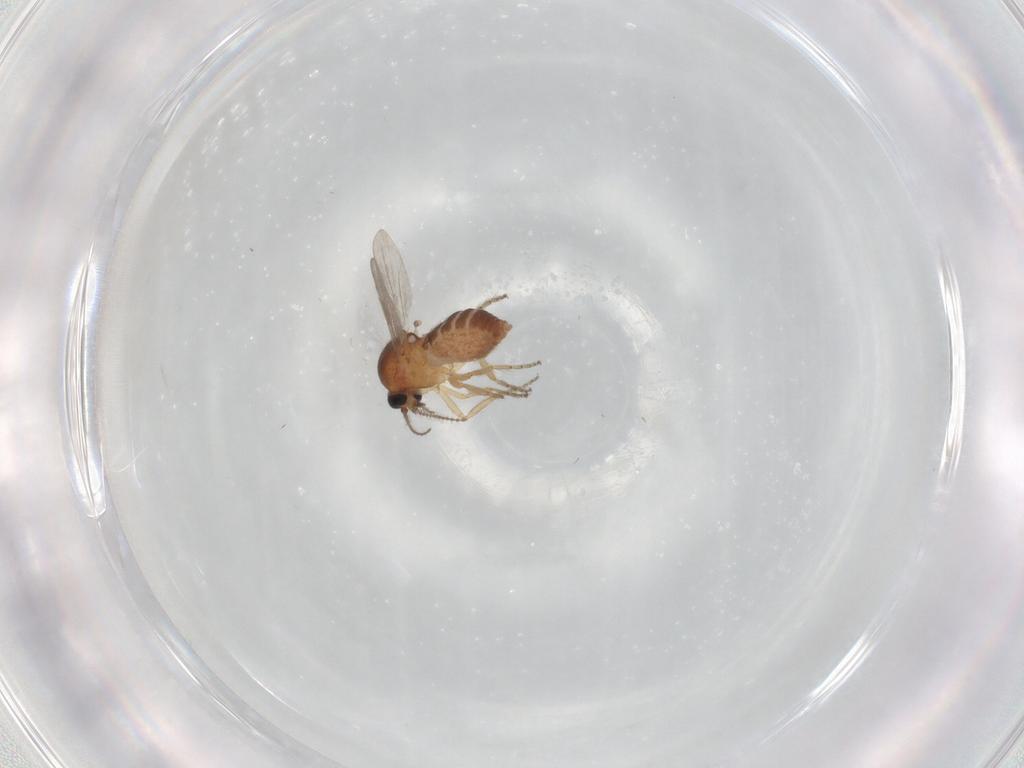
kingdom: Animalia
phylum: Arthropoda
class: Insecta
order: Diptera
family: Ceratopogonidae
